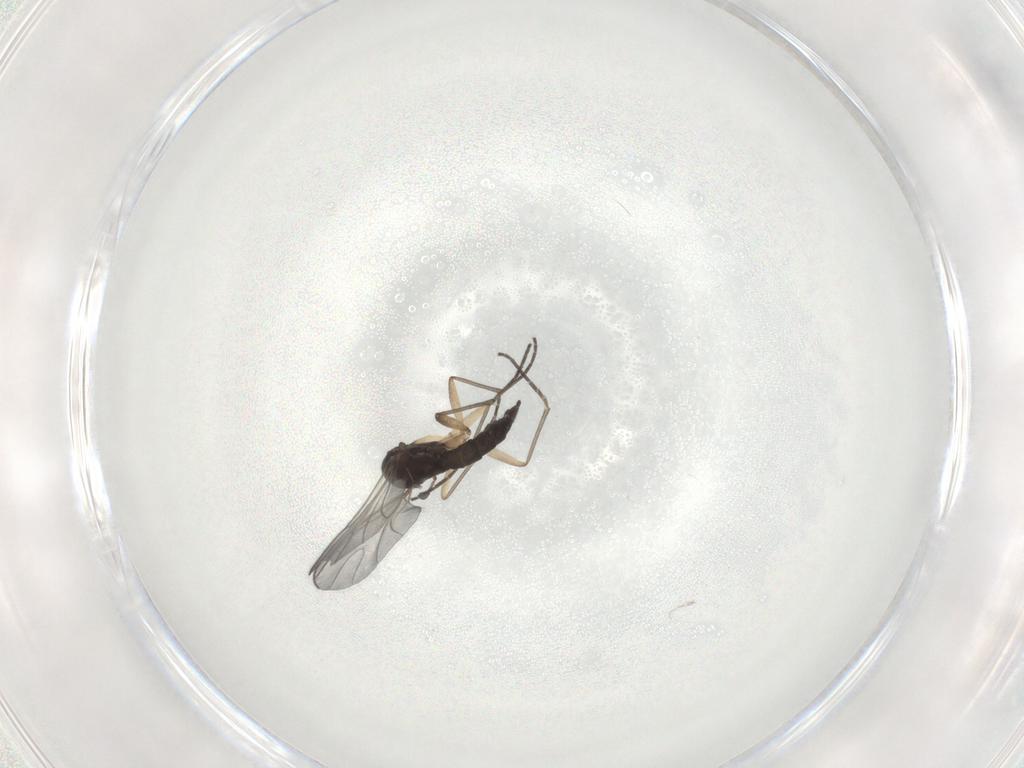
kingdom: Animalia
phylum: Arthropoda
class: Insecta
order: Diptera
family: Sciaridae
